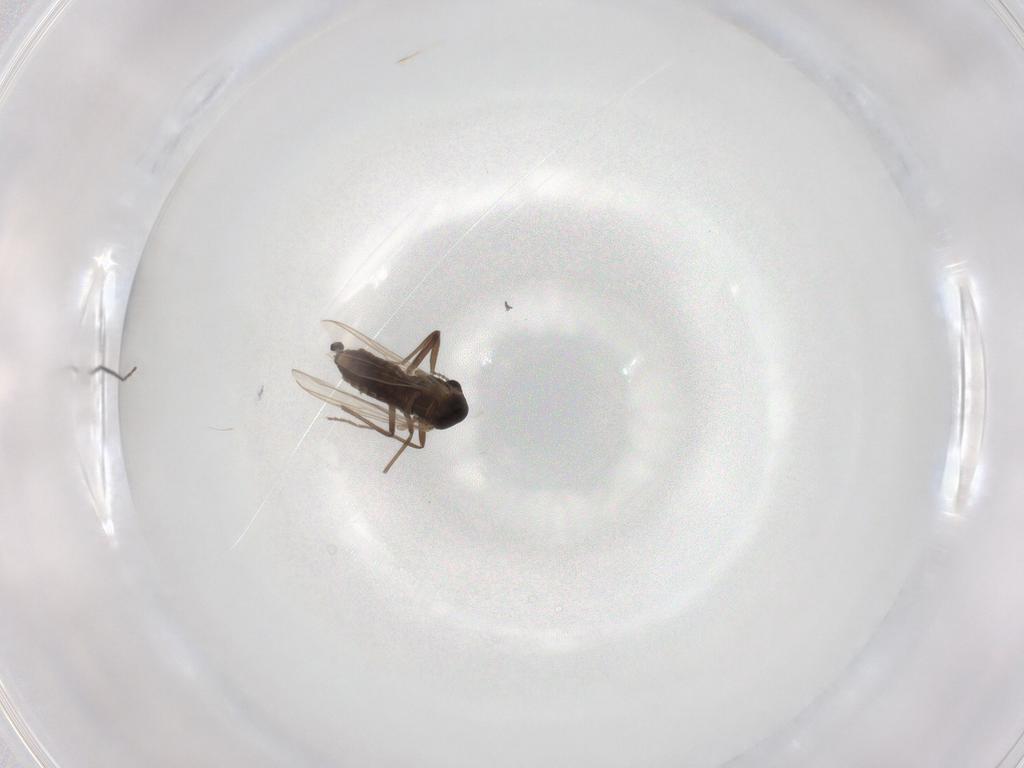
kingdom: Animalia
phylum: Arthropoda
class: Insecta
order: Diptera
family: Chironomidae
